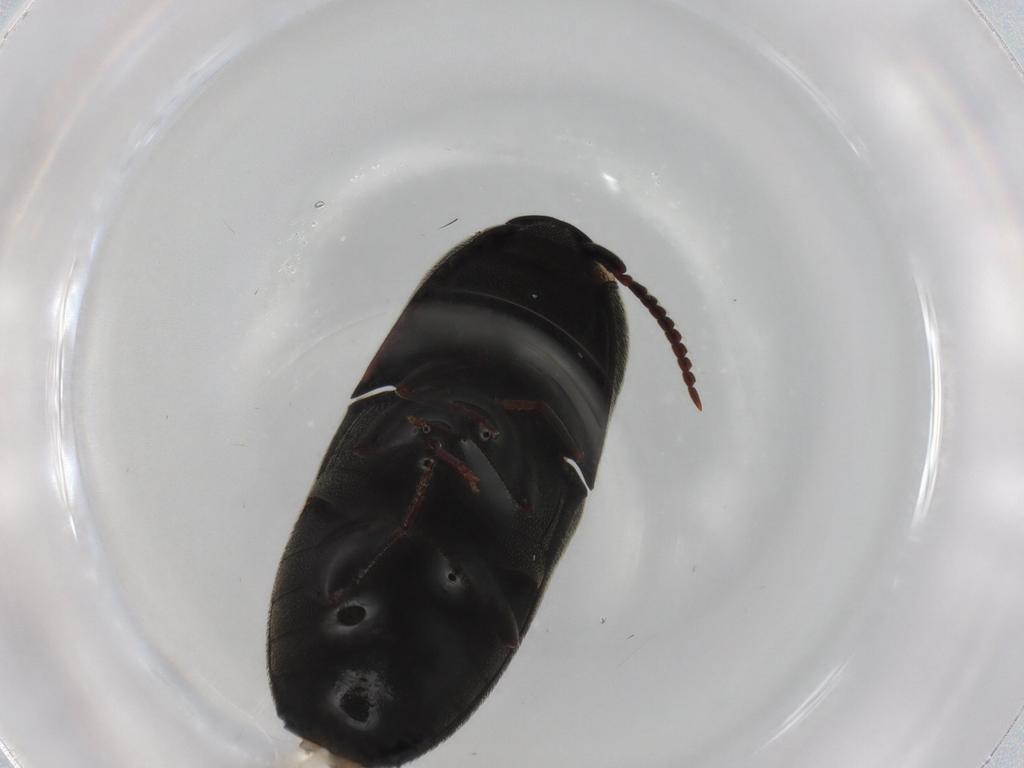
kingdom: Animalia
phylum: Arthropoda
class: Insecta
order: Coleoptera
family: Eucnemidae
